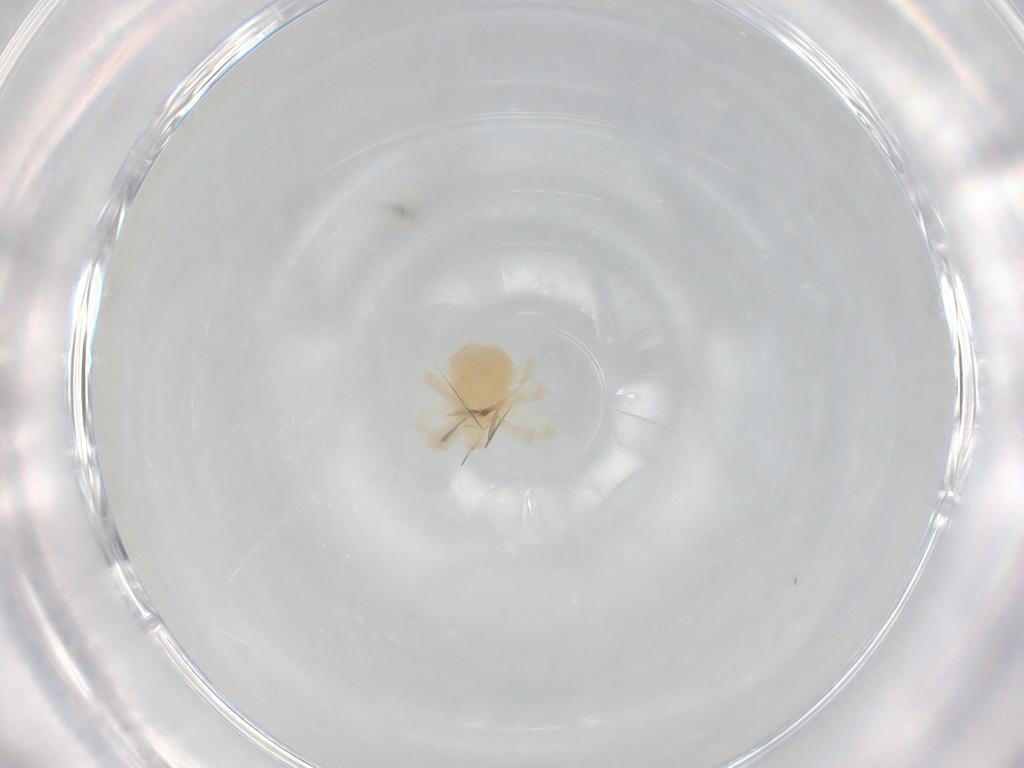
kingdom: Animalia
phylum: Arthropoda
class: Arachnida
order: Trombidiformes
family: Anystidae
